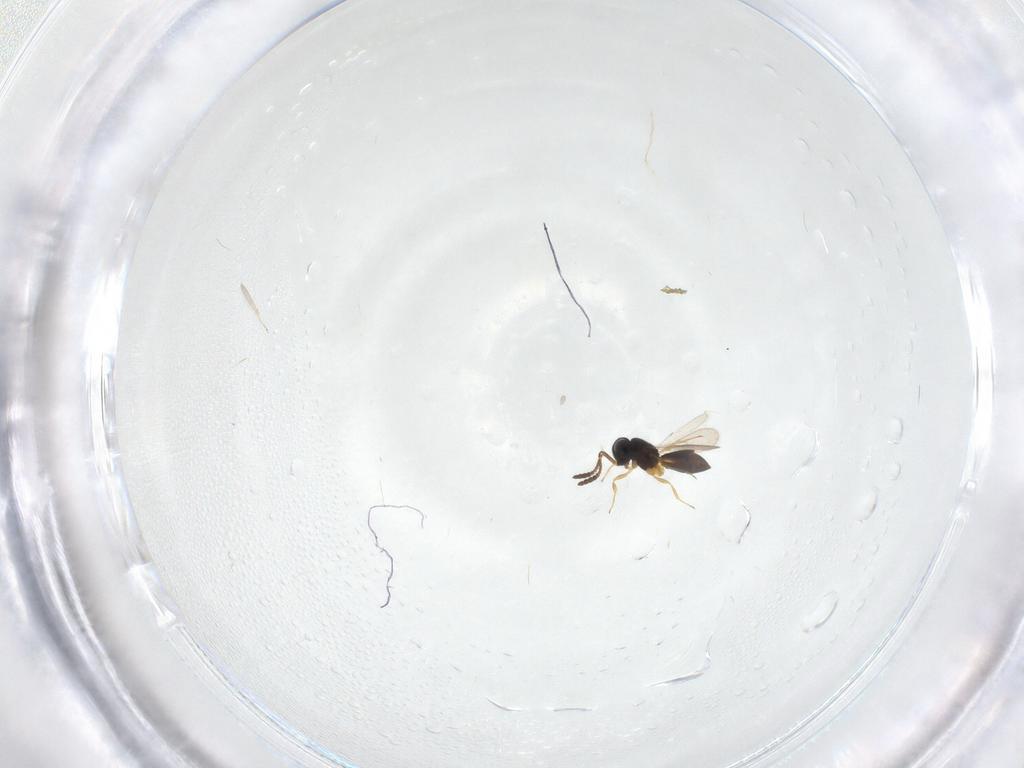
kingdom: Animalia
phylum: Arthropoda
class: Insecta
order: Hymenoptera
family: Scelionidae
